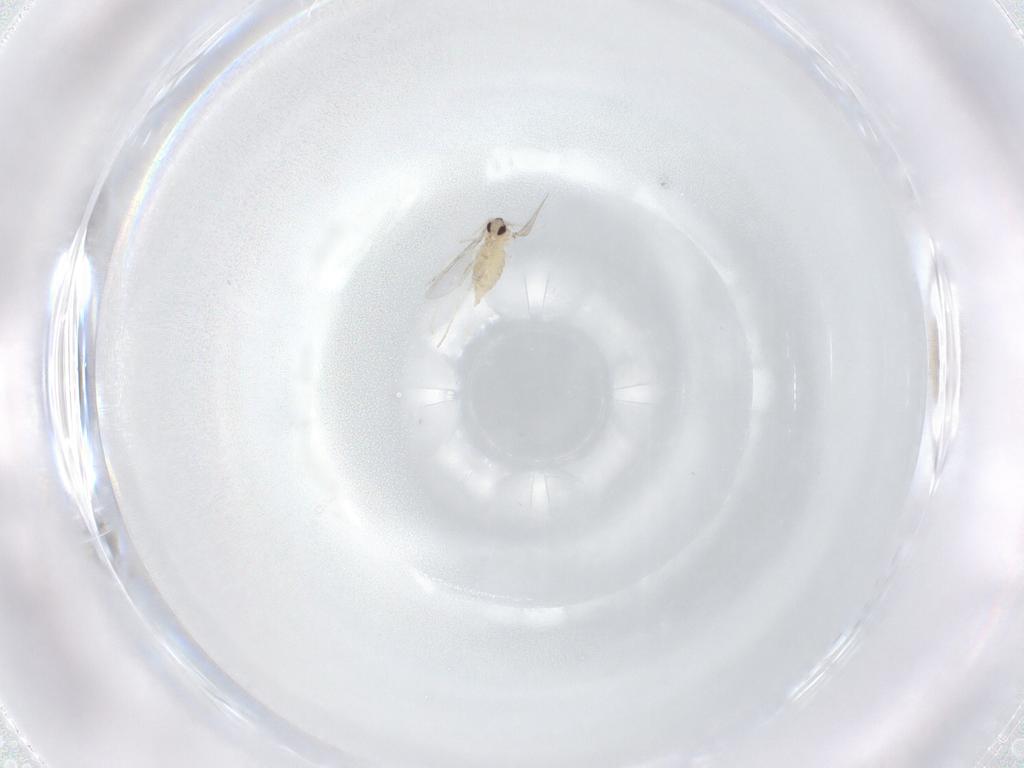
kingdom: Animalia
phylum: Arthropoda
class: Insecta
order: Diptera
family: Cecidomyiidae
